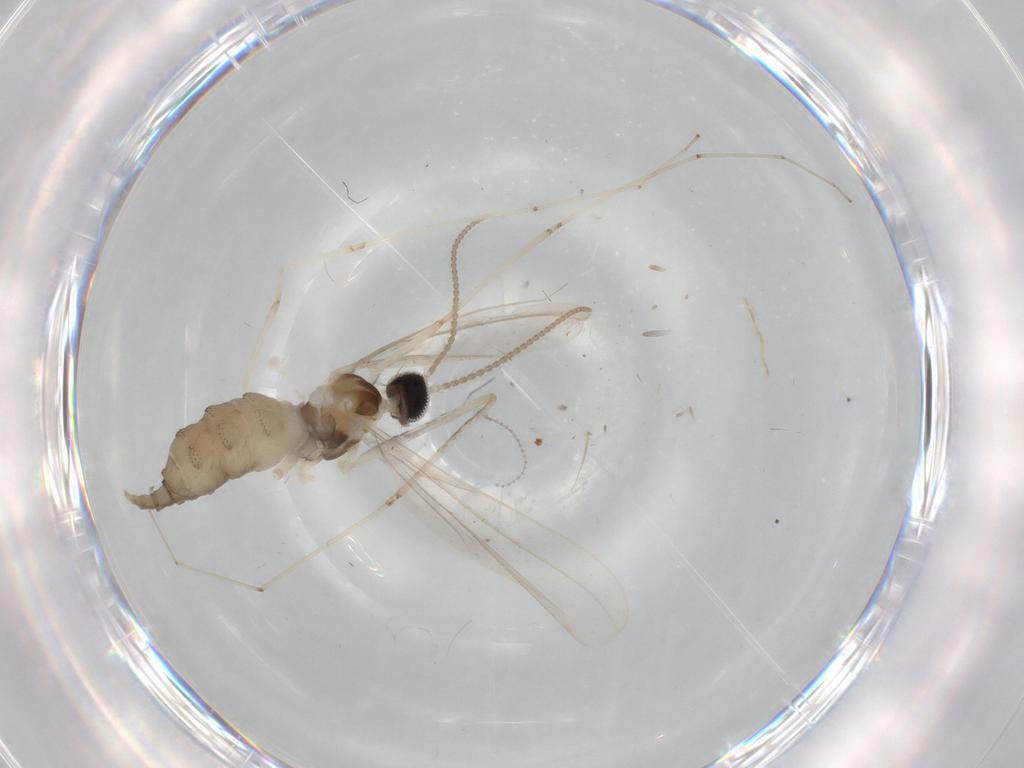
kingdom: Animalia
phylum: Arthropoda
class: Insecta
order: Diptera
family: Cecidomyiidae
